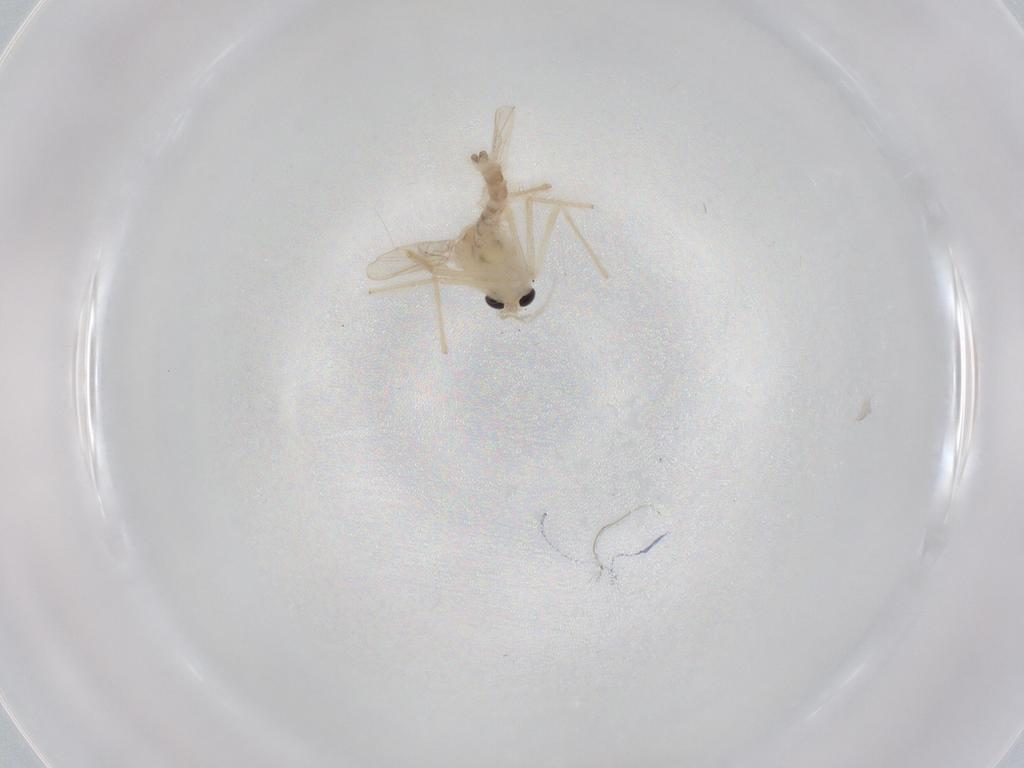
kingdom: Animalia
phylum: Arthropoda
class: Insecta
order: Diptera
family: Chironomidae
